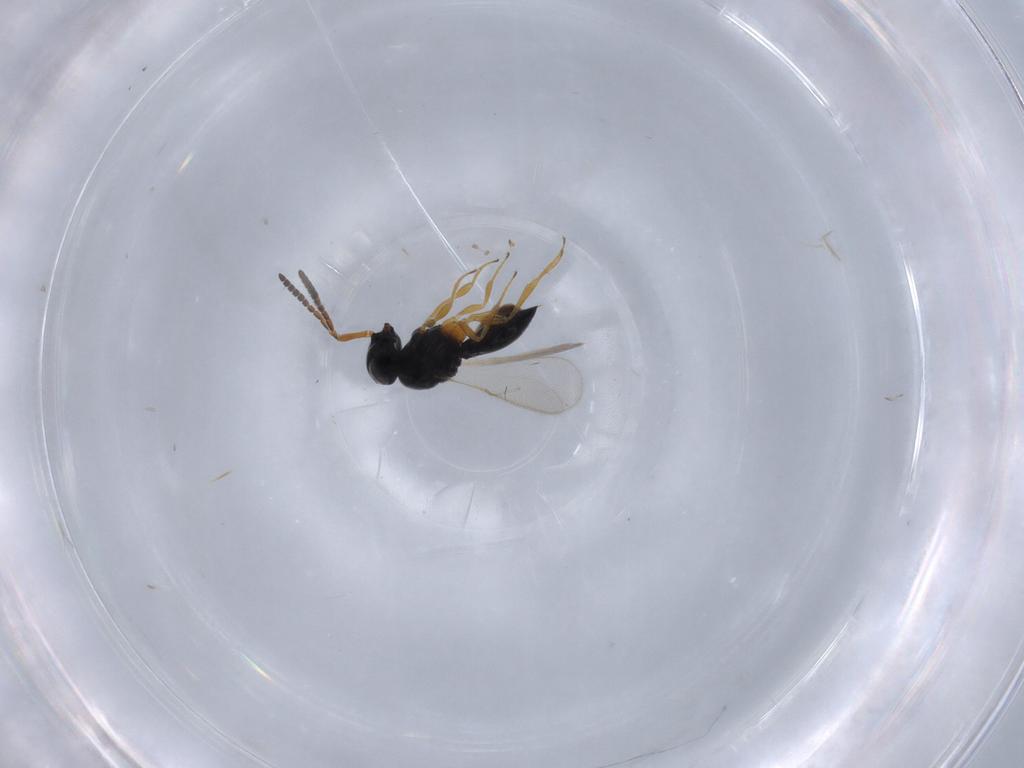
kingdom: Animalia
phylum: Arthropoda
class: Insecta
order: Hymenoptera
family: Scelionidae
